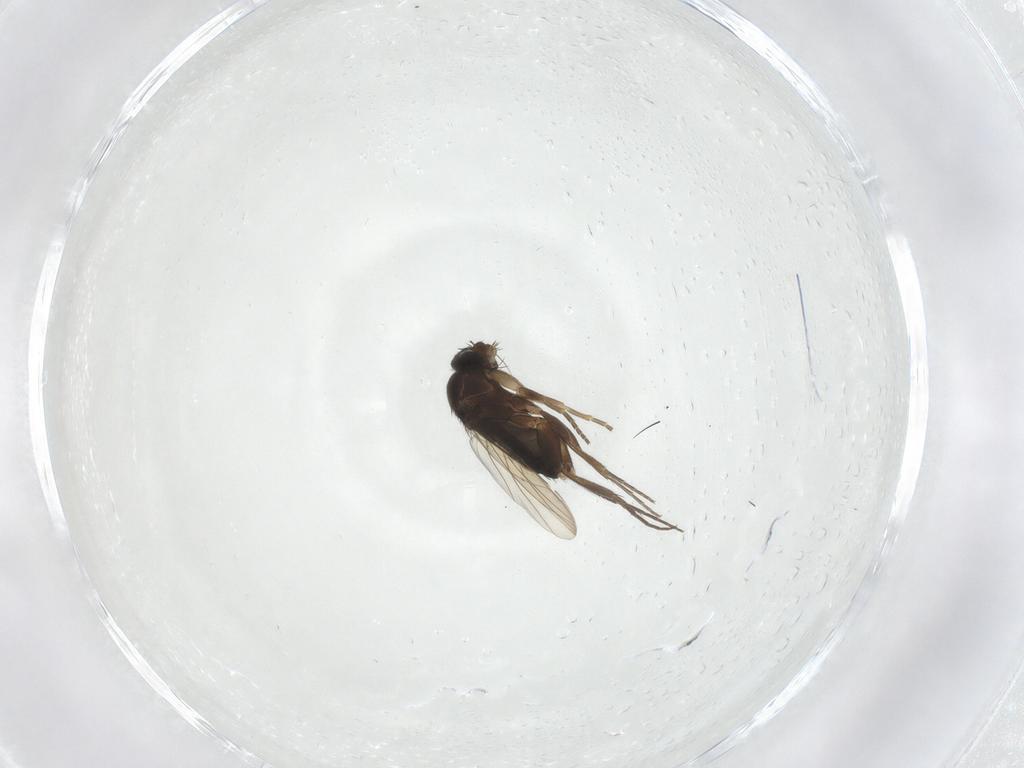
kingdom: Animalia
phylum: Arthropoda
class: Insecta
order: Diptera
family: Phoridae
